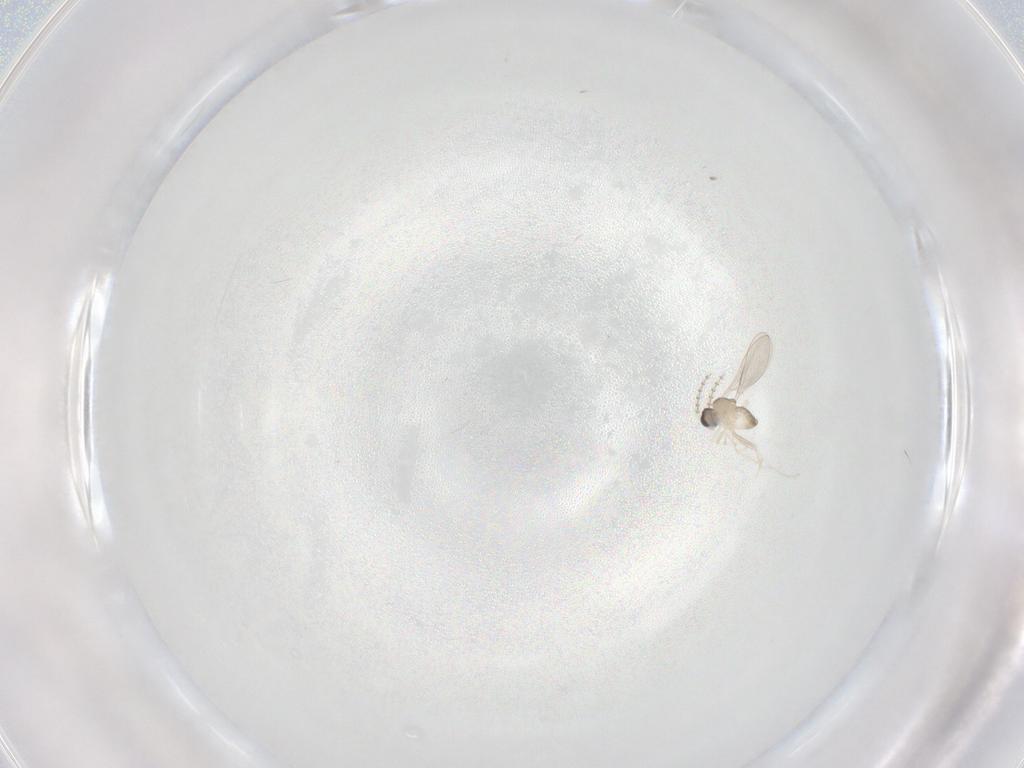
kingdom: Animalia
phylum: Arthropoda
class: Insecta
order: Diptera
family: Cecidomyiidae
